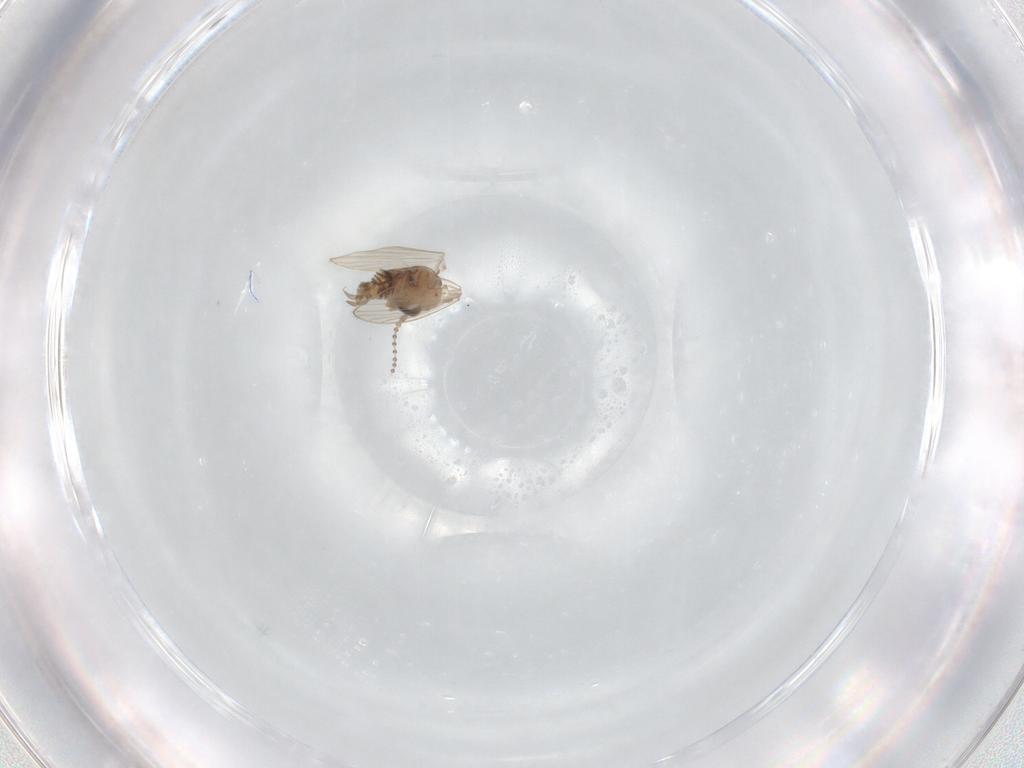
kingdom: Animalia
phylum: Arthropoda
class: Insecta
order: Diptera
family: Psychodidae
